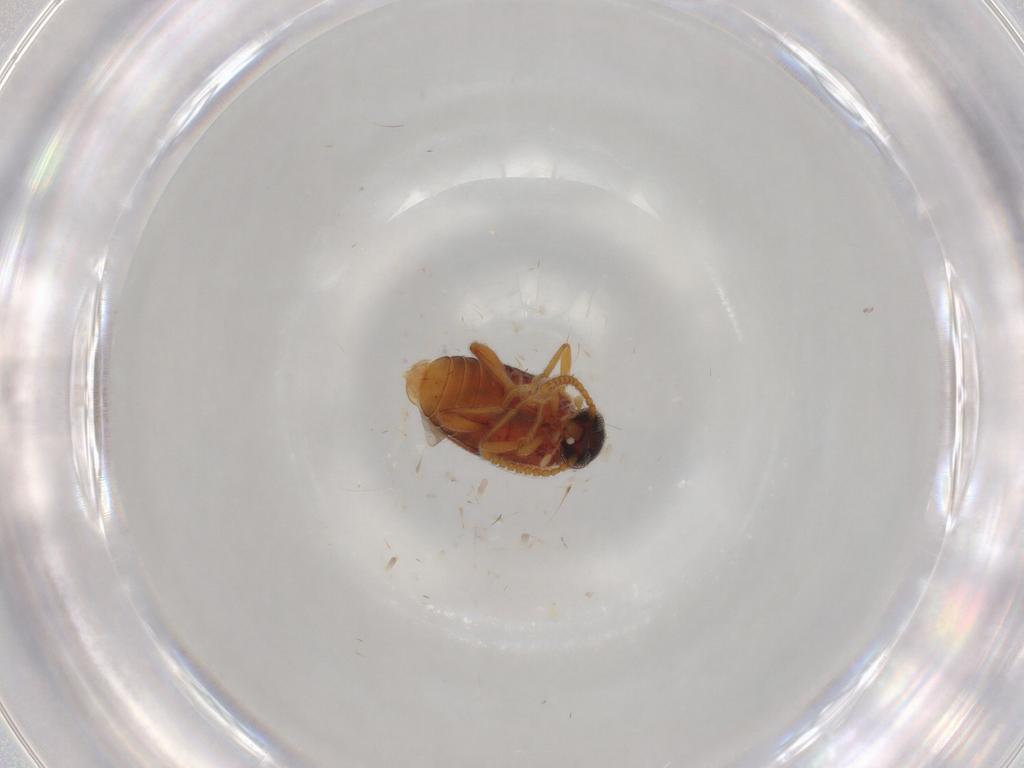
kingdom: Animalia
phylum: Arthropoda
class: Insecta
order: Coleoptera
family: Aderidae
